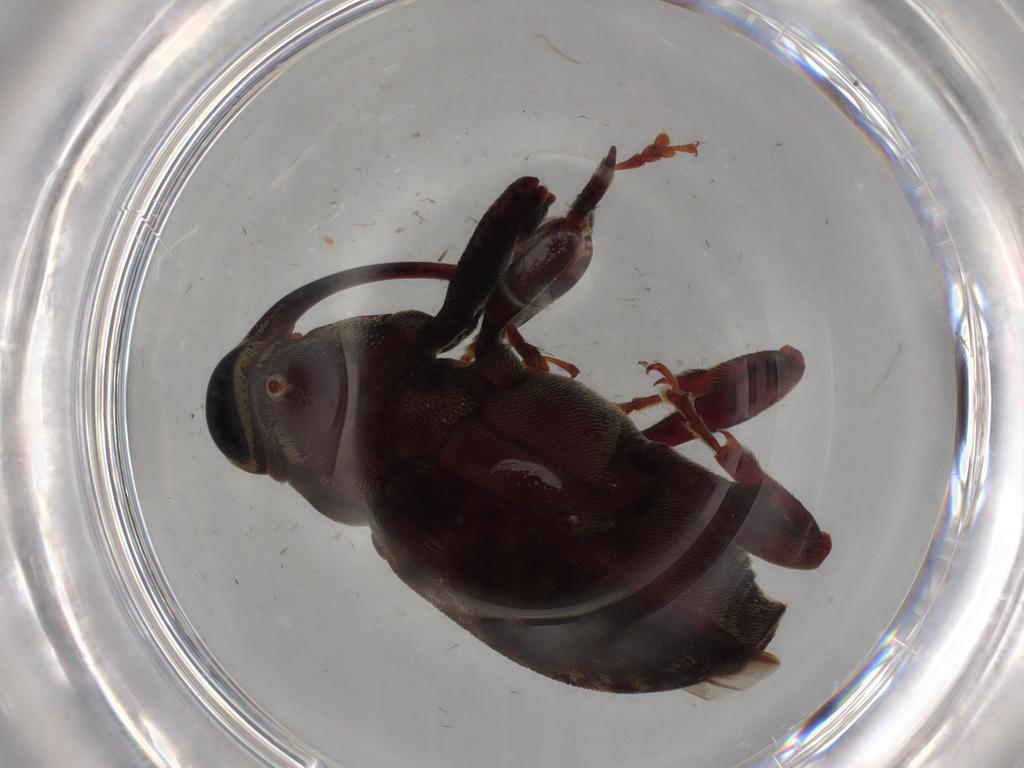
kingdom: Animalia
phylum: Arthropoda
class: Insecta
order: Coleoptera
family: Curculionidae
